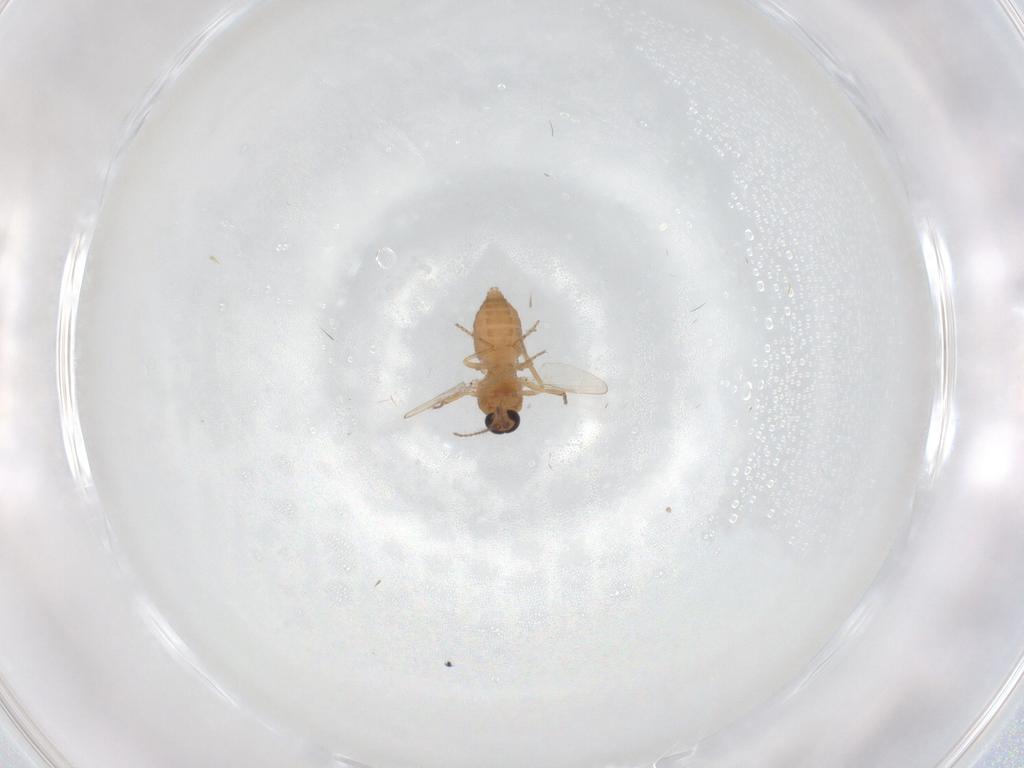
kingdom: Animalia
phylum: Arthropoda
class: Insecta
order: Diptera
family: Ceratopogonidae
